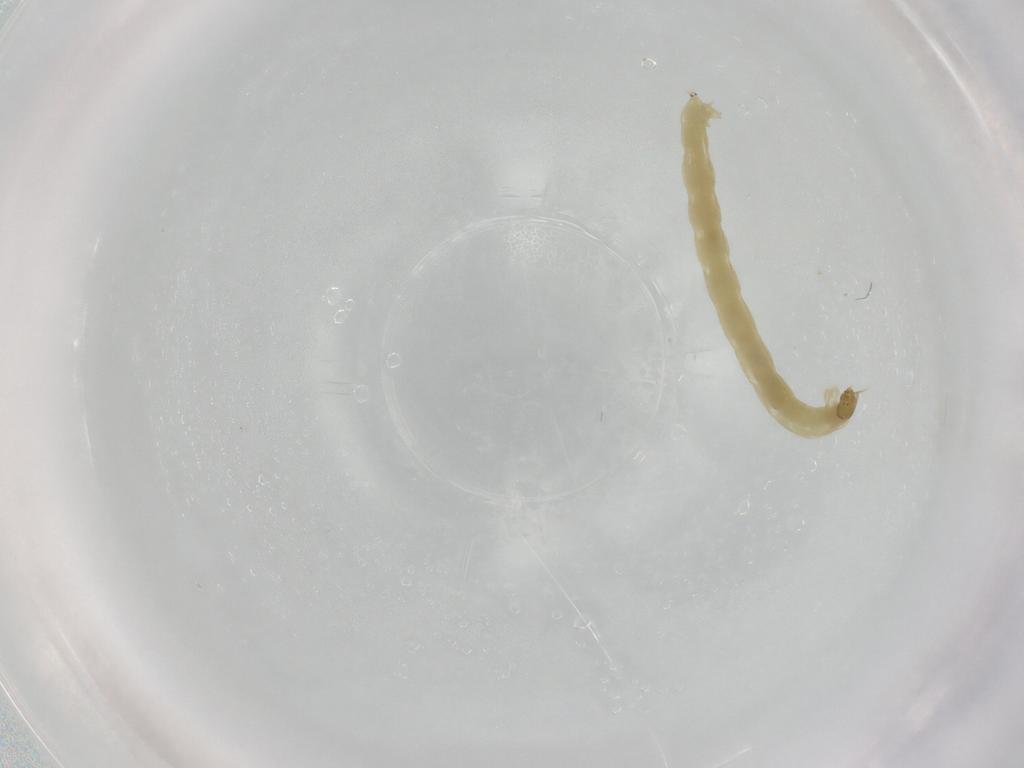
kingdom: Animalia
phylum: Arthropoda
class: Insecta
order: Diptera
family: Chironomidae
